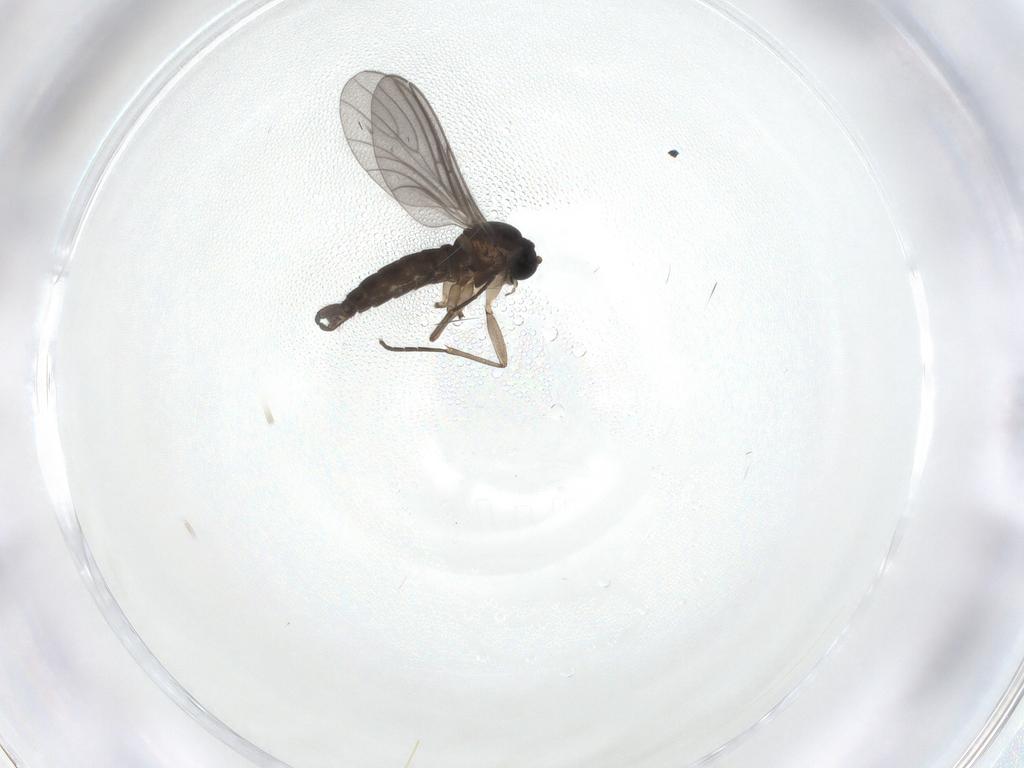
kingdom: Animalia
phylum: Arthropoda
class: Insecta
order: Diptera
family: Sciaridae
